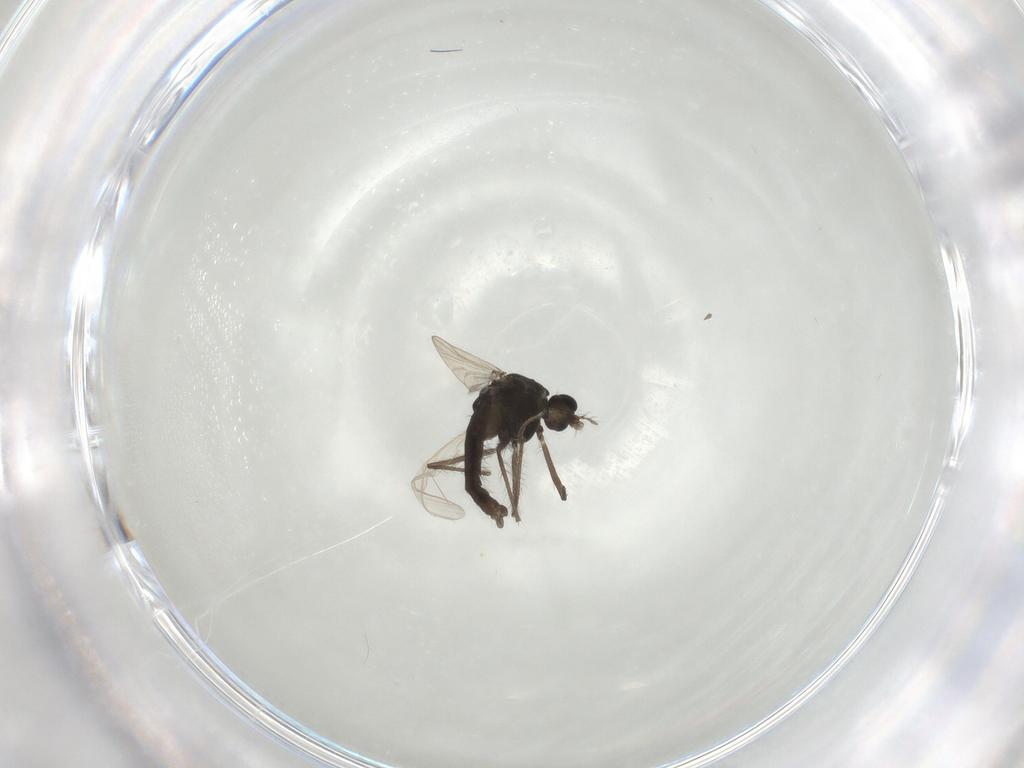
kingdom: Animalia
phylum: Arthropoda
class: Insecta
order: Diptera
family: Chironomidae
